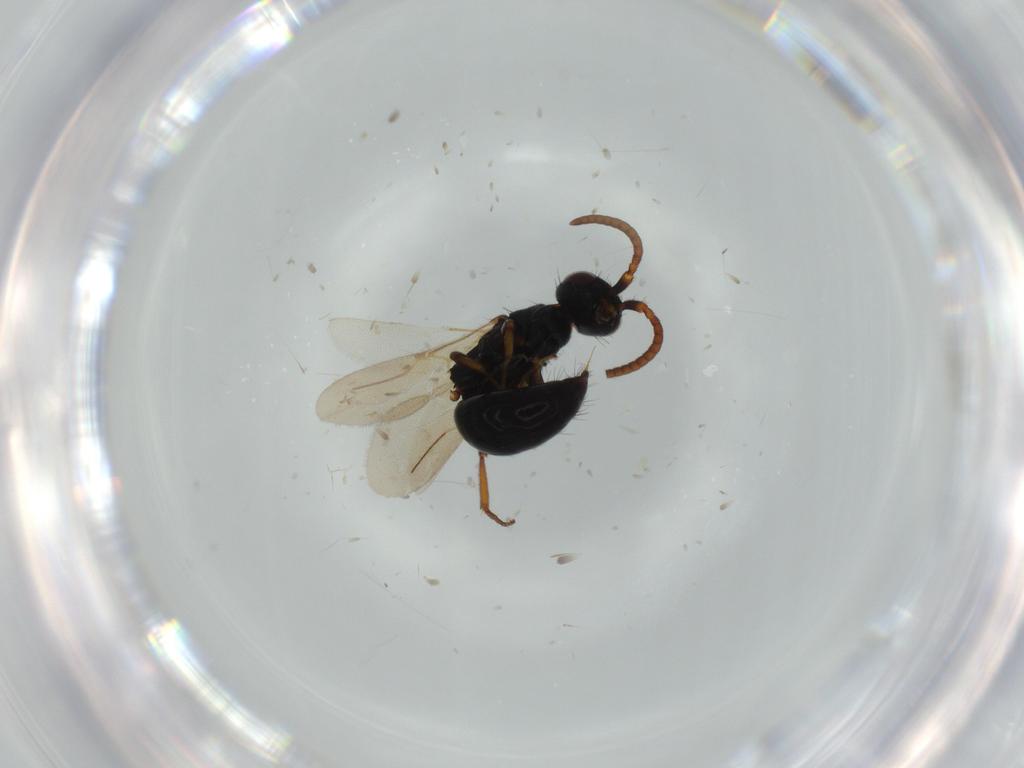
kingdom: Animalia
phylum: Arthropoda
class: Insecta
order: Hymenoptera
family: Bethylidae
